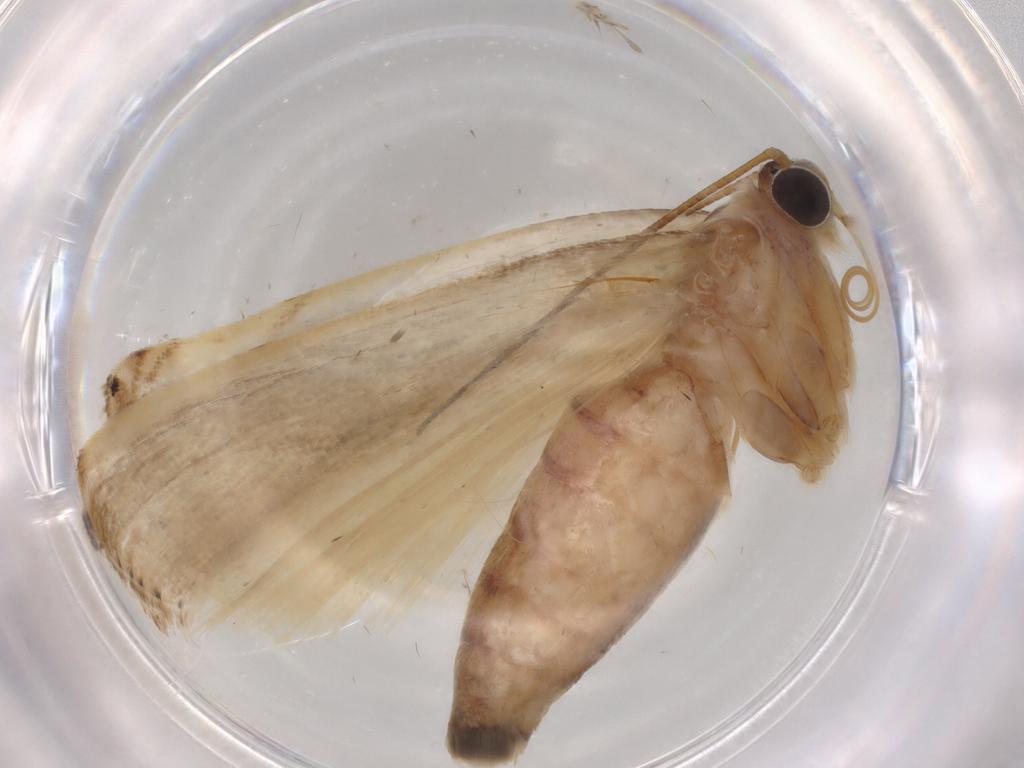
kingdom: Animalia
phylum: Arthropoda
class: Insecta
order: Lepidoptera
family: Crambidae
